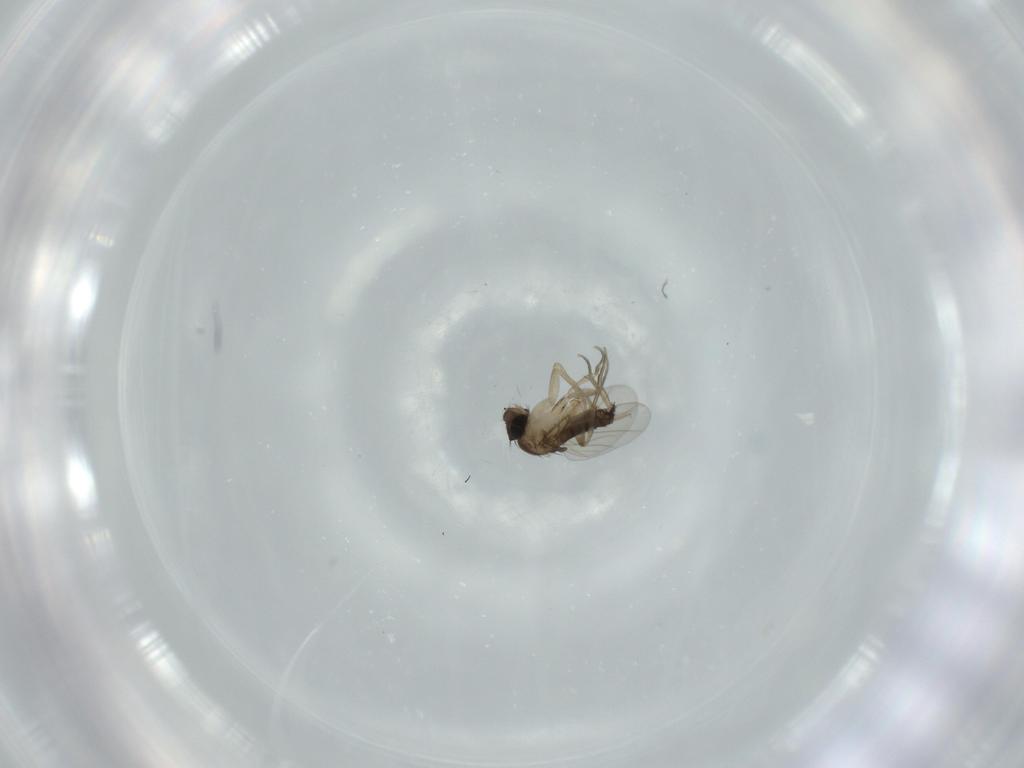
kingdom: Animalia
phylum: Arthropoda
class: Insecta
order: Diptera
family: Phoridae
